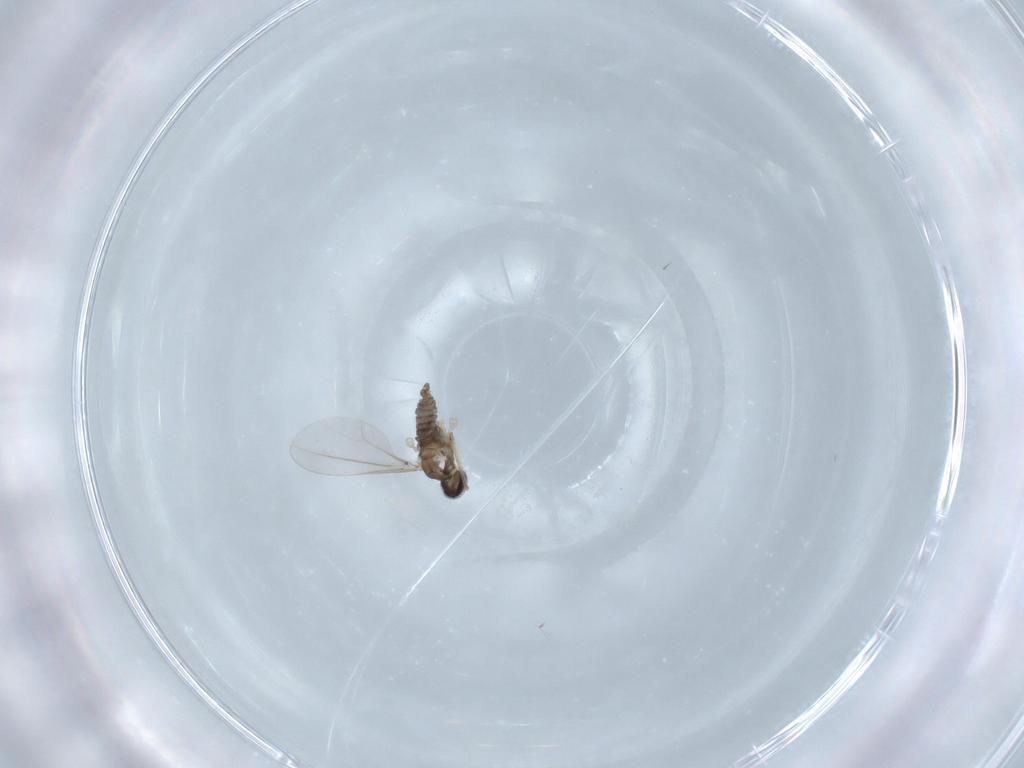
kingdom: Animalia
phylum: Arthropoda
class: Insecta
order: Diptera
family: Cecidomyiidae
